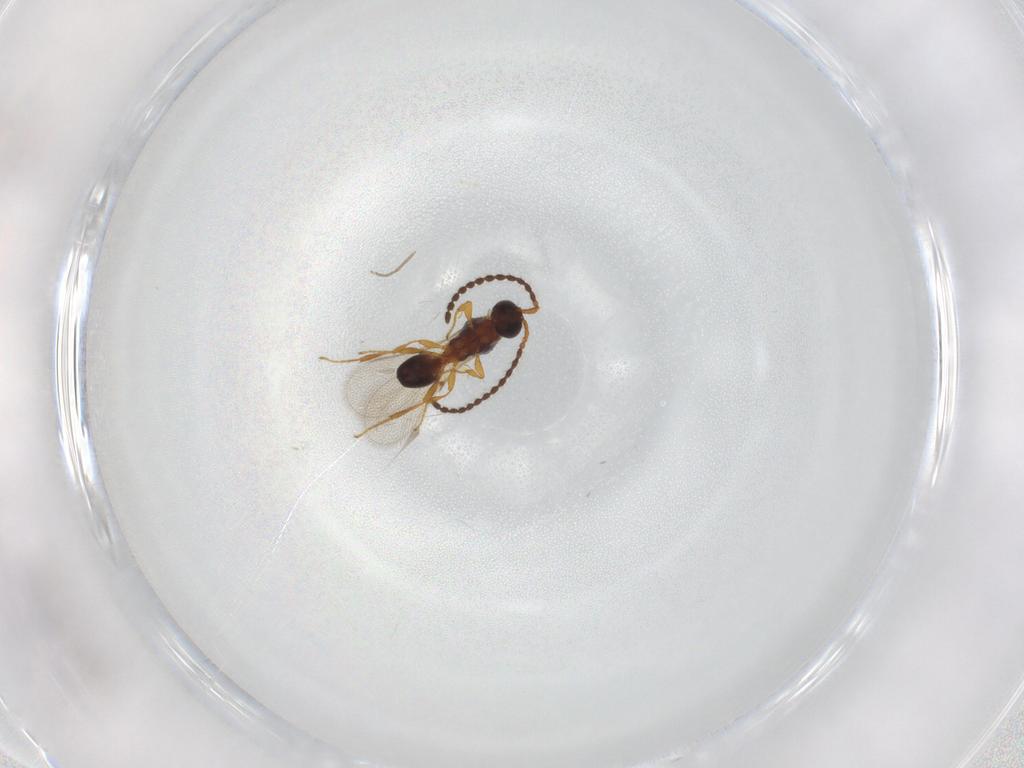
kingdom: Animalia
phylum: Arthropoda
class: Insecta
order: Hymenoptera
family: Diapriidae
